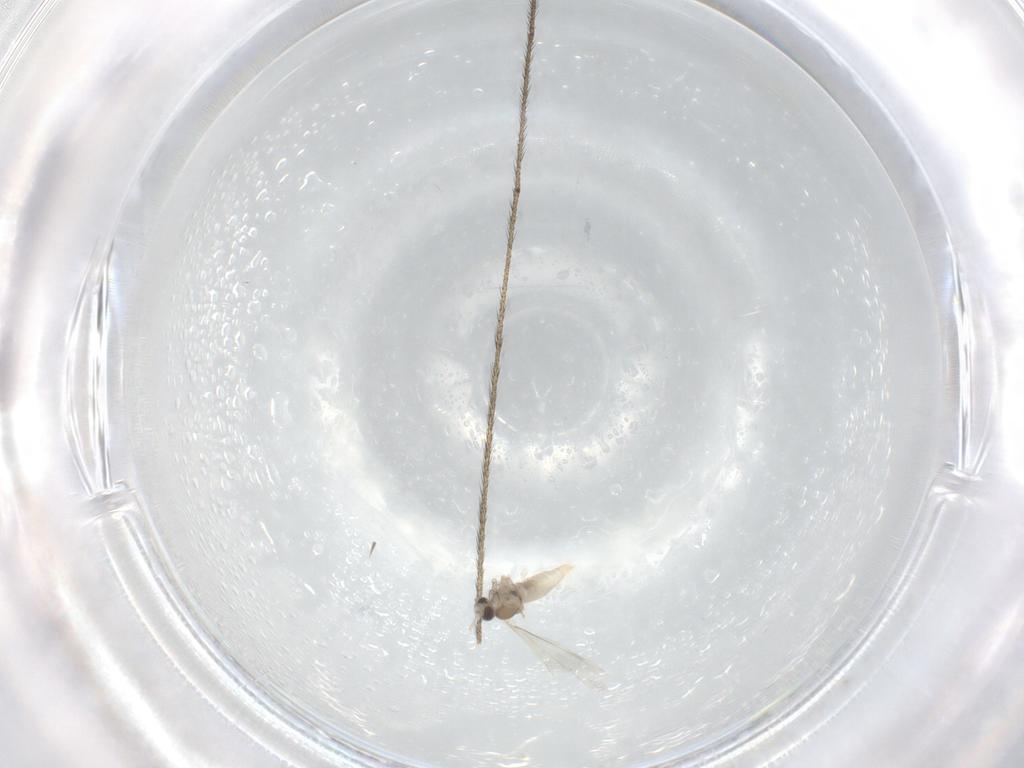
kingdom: Animalia
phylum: Arthropoda
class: Insecta
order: Diptera
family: Cecidomyiidae
